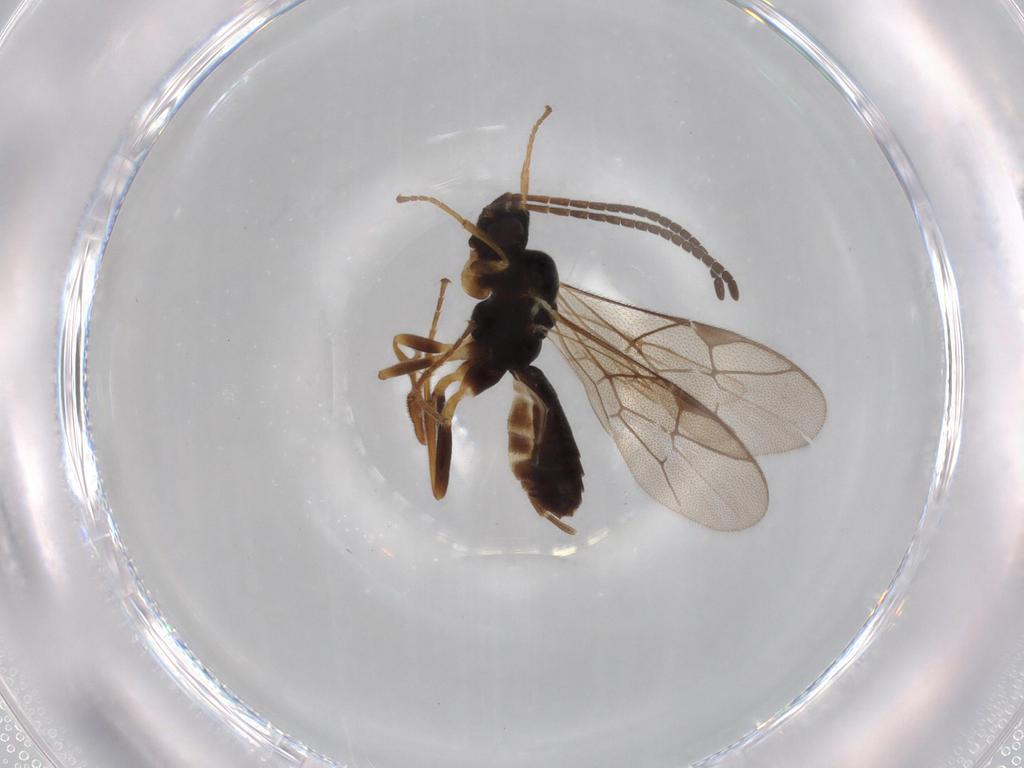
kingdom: Animalia
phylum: Arthropoda
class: Insecta
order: Hymenoptera
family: Ichneumonidae
